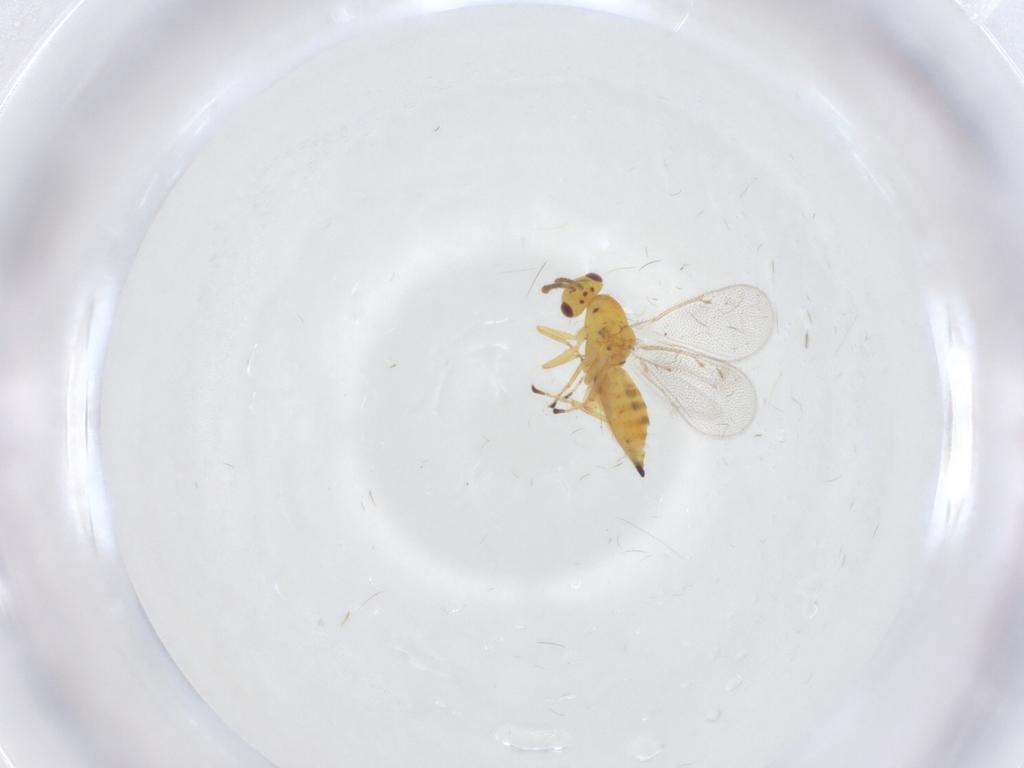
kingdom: Animalia
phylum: Arthropoda
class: Insecta
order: Hymenoptera
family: Eulophidae
